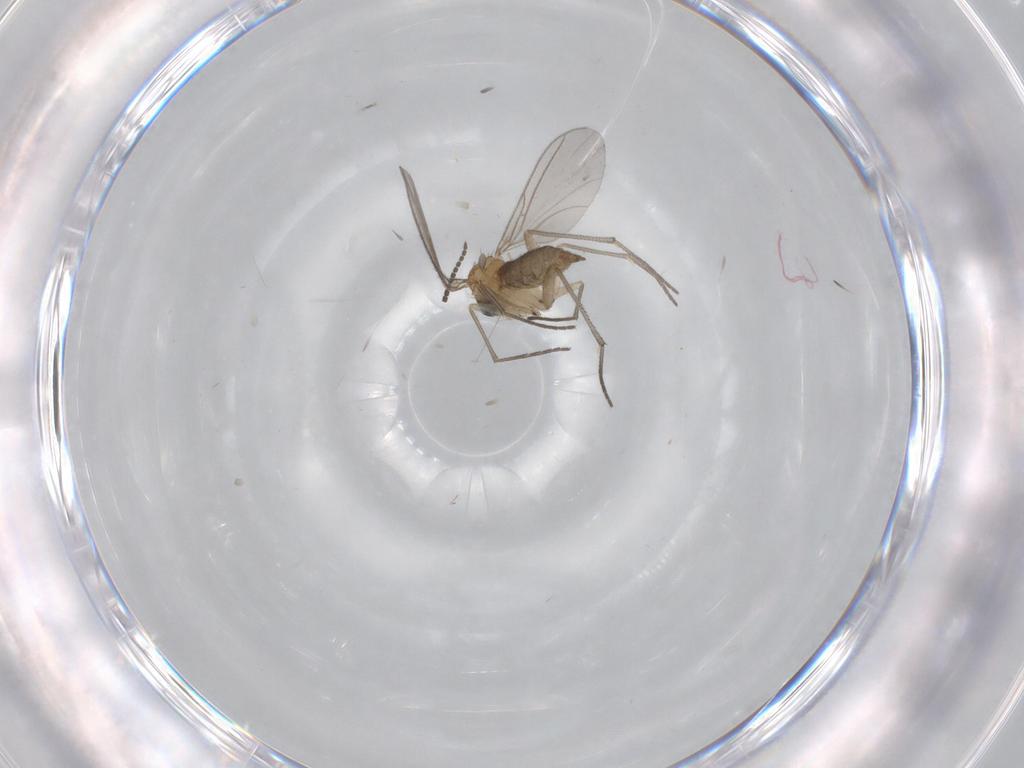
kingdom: Animalia
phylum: Arthropoda
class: Insecta
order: Diptera
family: Sciaridae
